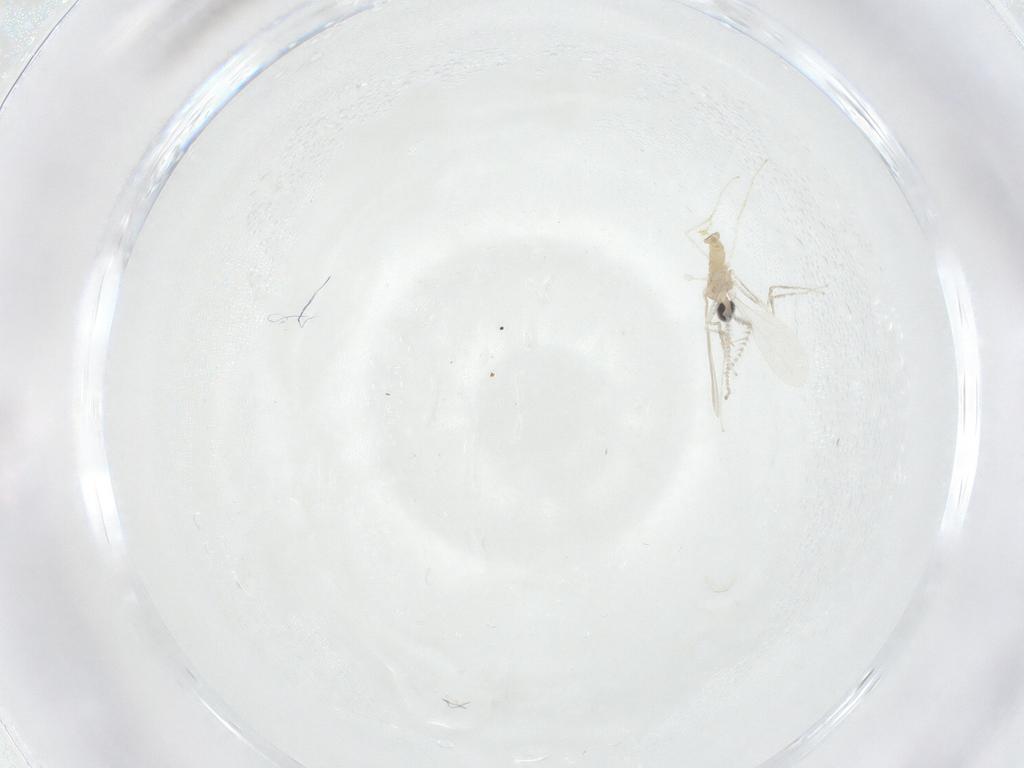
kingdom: Animalia
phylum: Arthropoda
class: Insecta
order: Diptera
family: Cecidomyiidae
